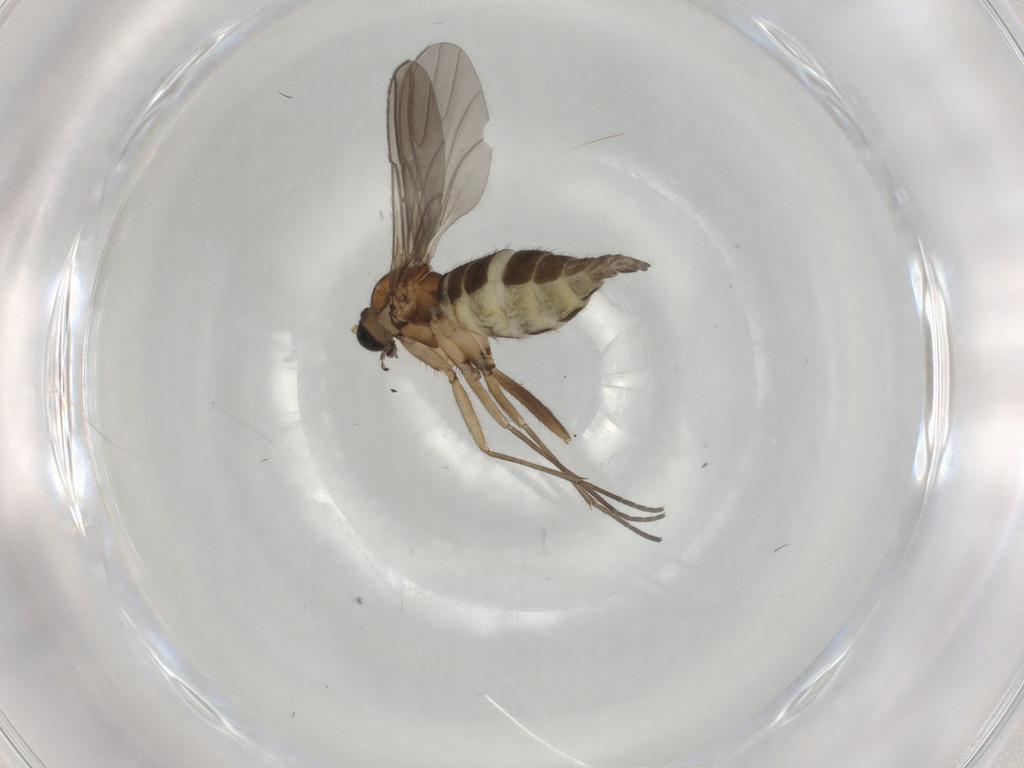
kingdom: Animalia
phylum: Arthropoda
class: Insecta
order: Diptera
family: Sciaridae
